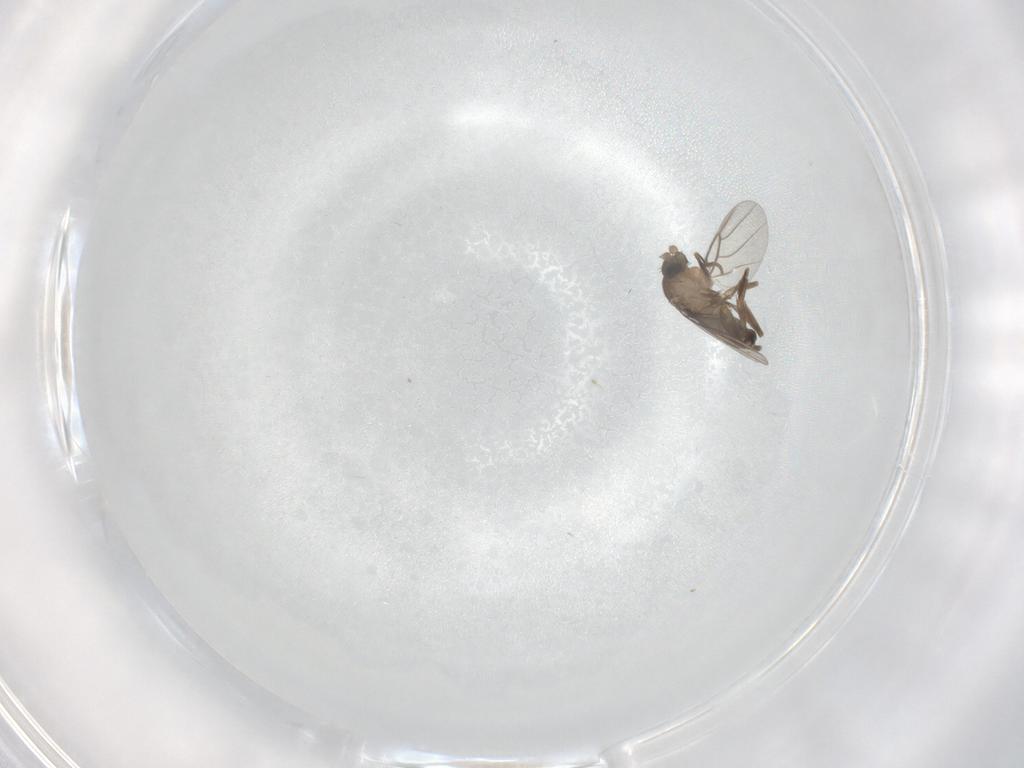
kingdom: Animalia
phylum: Arthropoda
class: Insecta
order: Diptera
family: Phoridae
